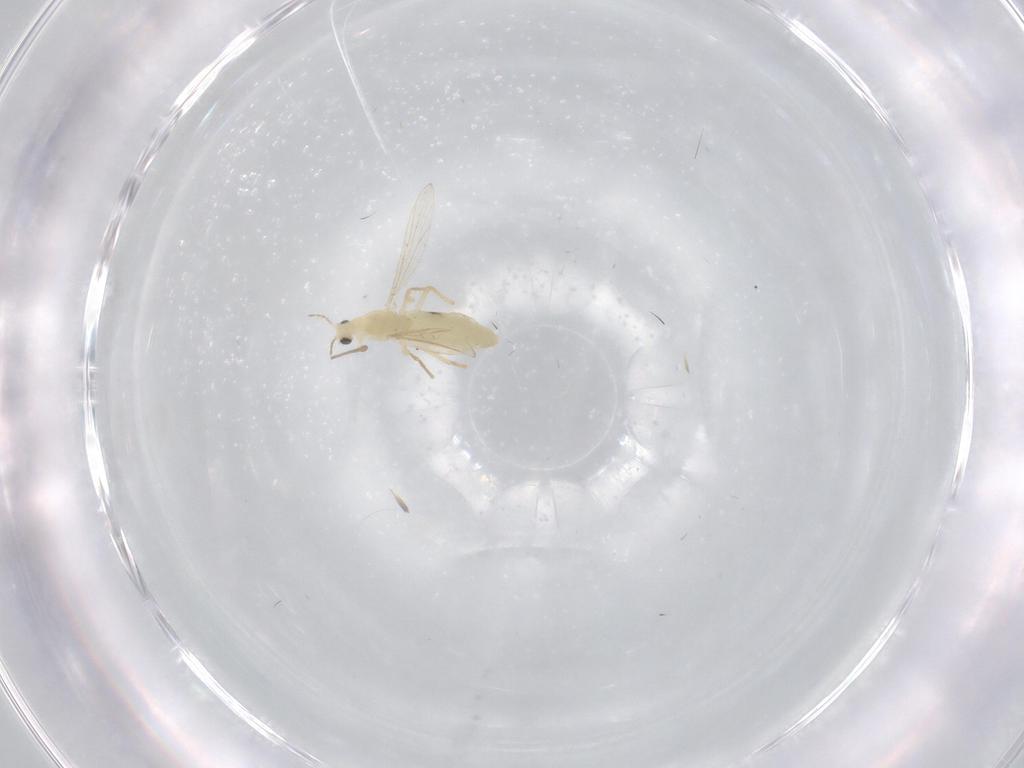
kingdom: Animalia
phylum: Arthropoda
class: Insecta
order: Diptera
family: Chironomidae
